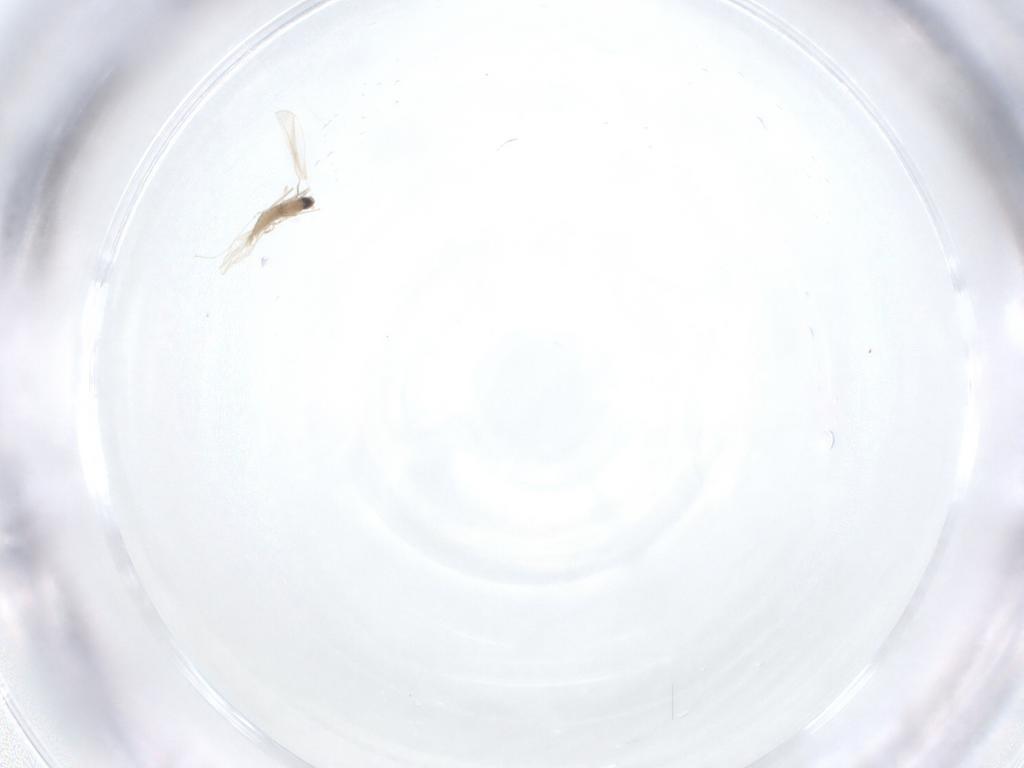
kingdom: Animalia
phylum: Arthropoda
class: Insecta
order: Diptera
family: Cecidomyiidae
